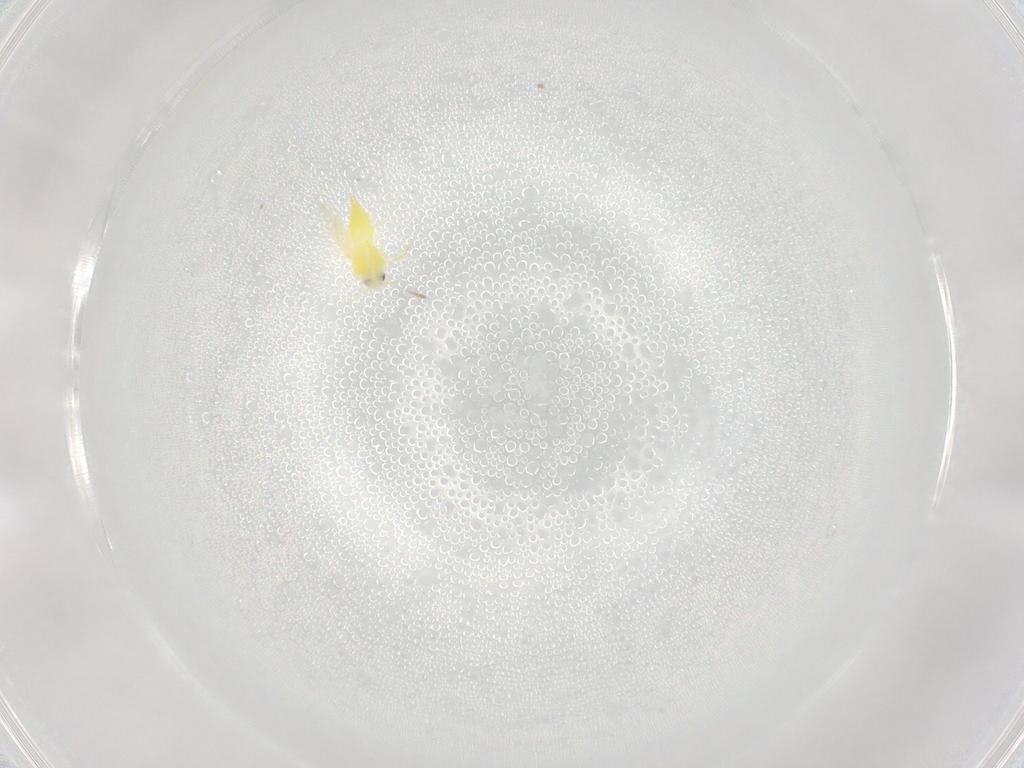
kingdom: Animalia
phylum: Arthropoda
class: Insecta
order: Hemiptera
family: Aleyrodidae
